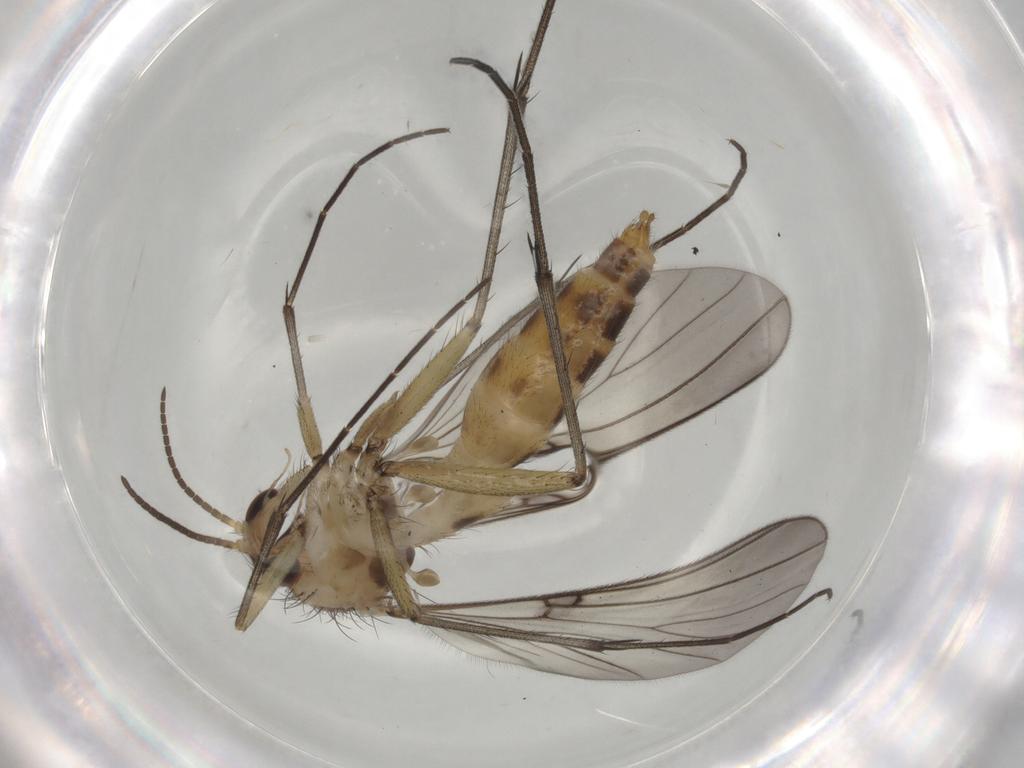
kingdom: Animalia
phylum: Arthropoda
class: Insecta
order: Diptera
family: Mycetophilidae
